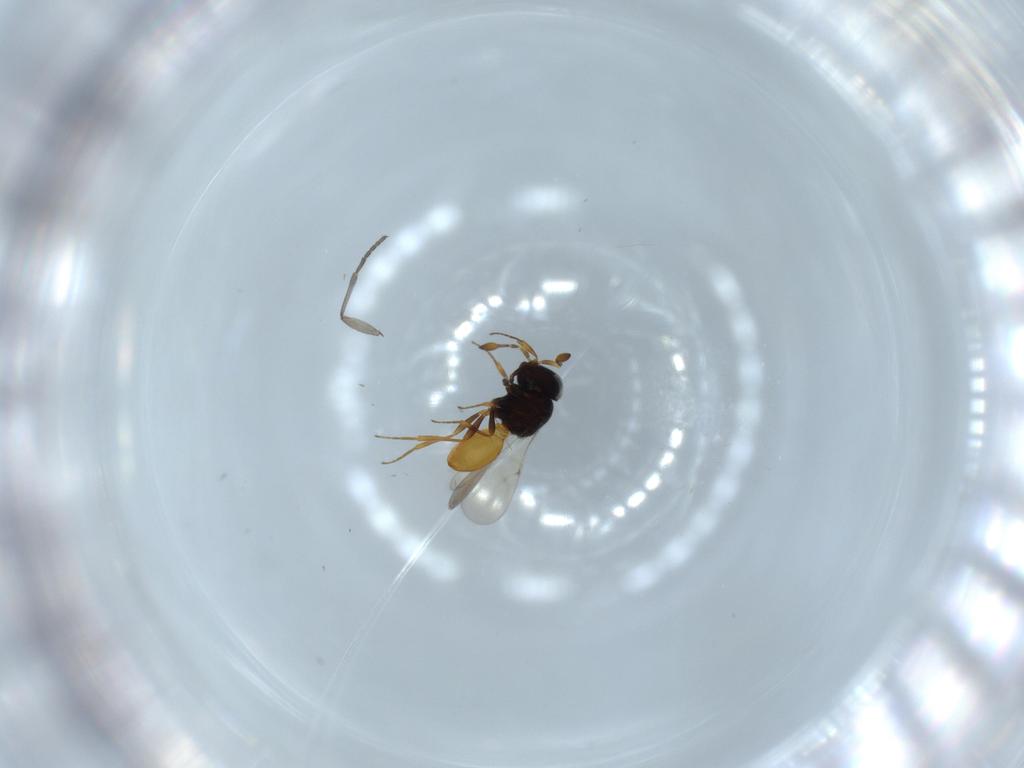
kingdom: Animalia
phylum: Arthropoda
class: Insecta
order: Hymenoptera
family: Scelionidae
